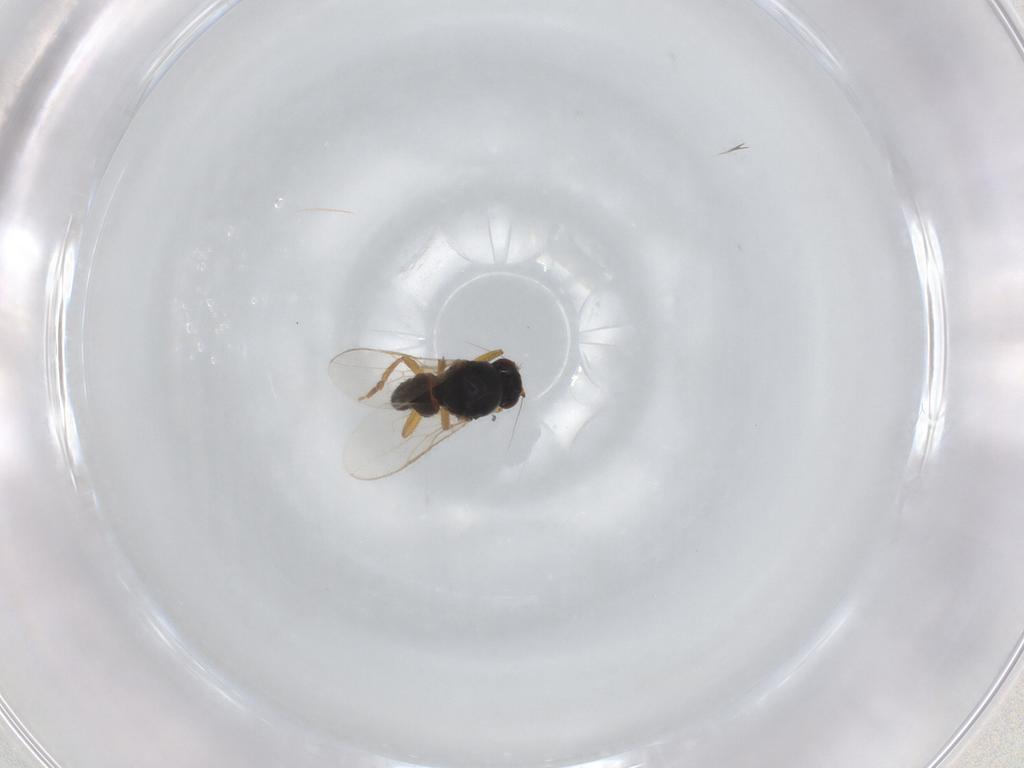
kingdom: Animalia
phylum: Arthropoda
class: Insecta
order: Diptera
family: Sphaeroceridae
